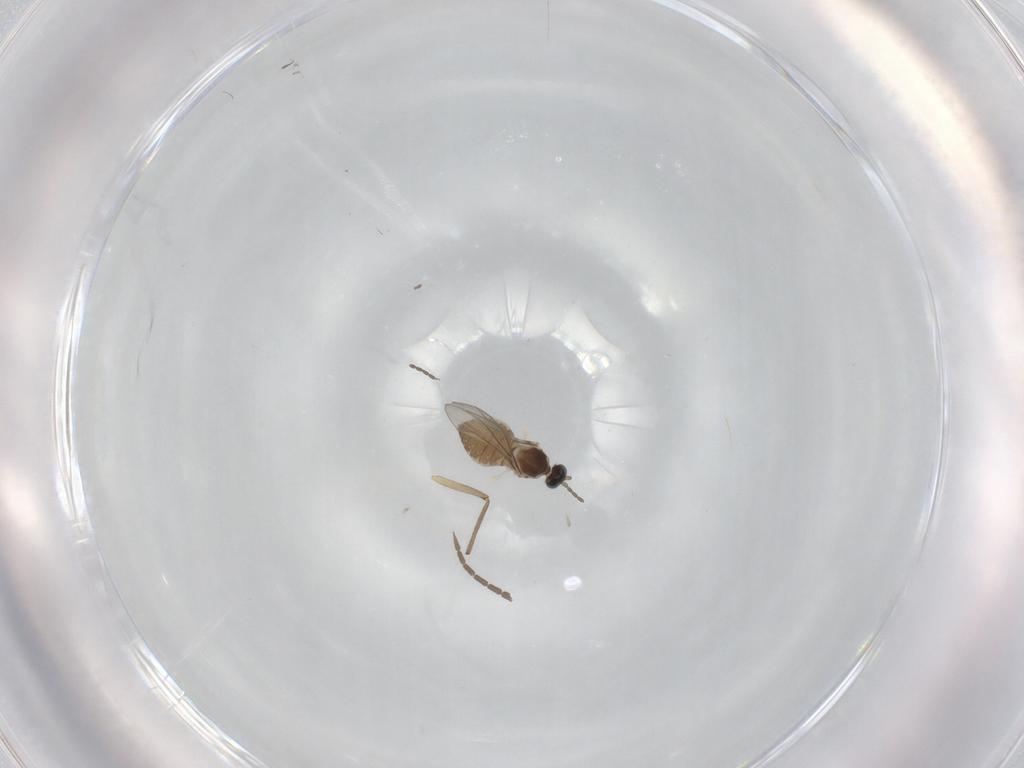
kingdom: Animalia
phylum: Arthropoda
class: Insecta
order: Diptera
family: Cecidomyiidae
